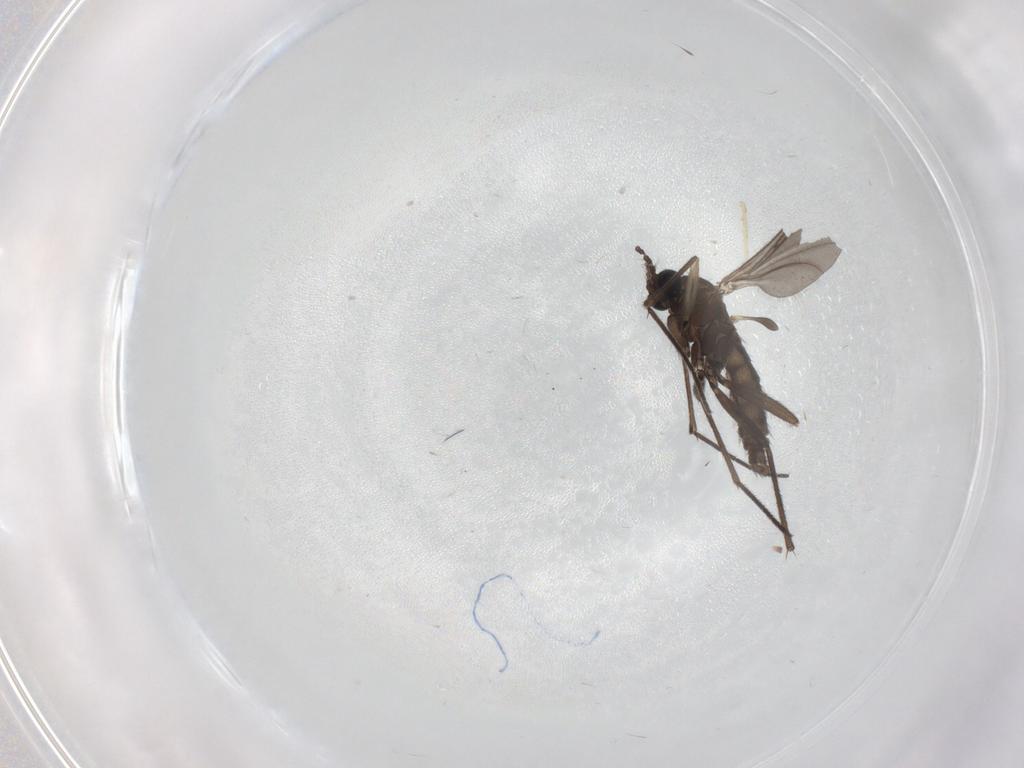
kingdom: Animalia
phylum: Arthropoda
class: Insecta
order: Diptera
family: Sciaridae
